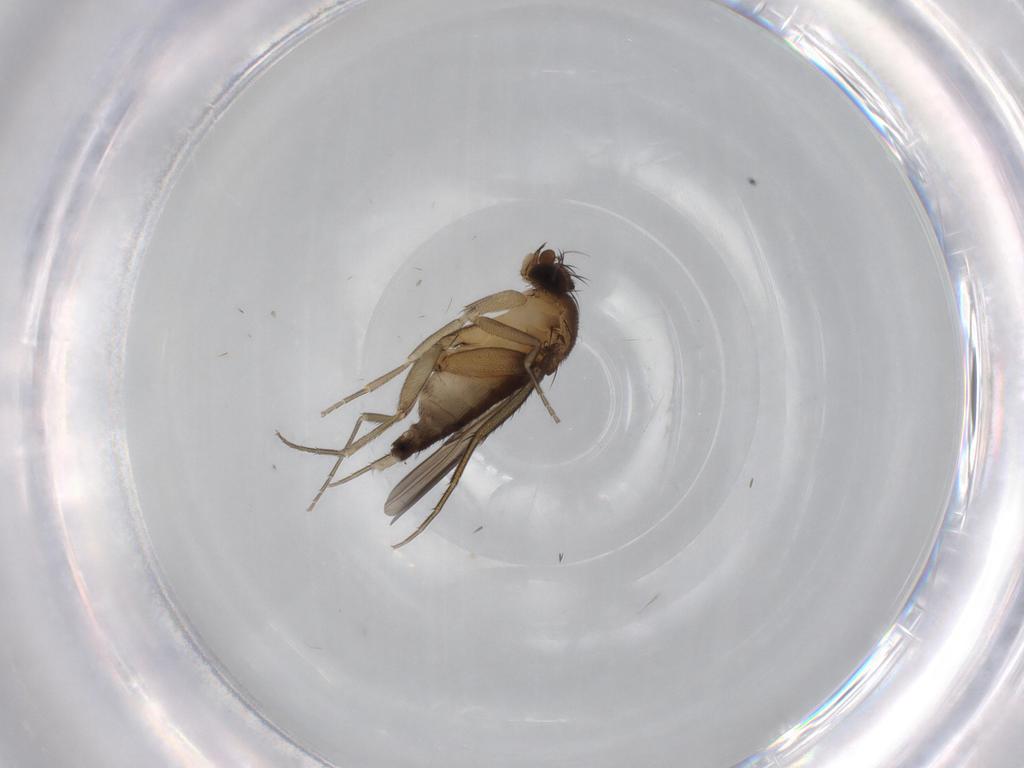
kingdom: Animalia
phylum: Arthropoda
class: Insecta
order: Diptera
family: Phoridae
